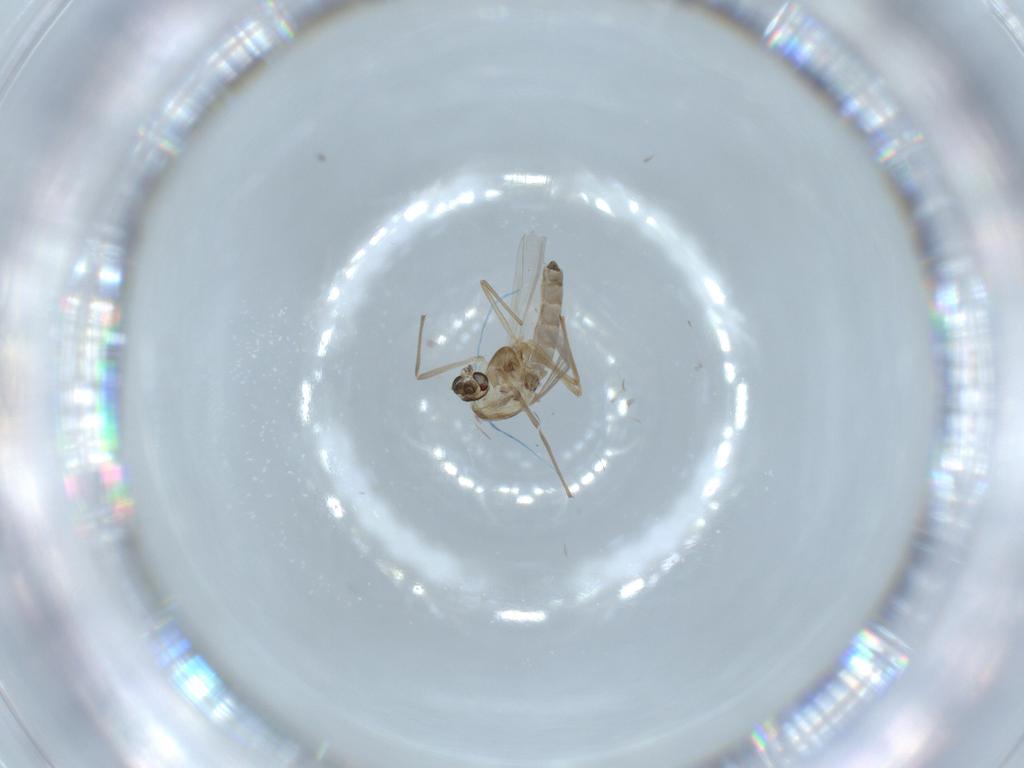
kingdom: Animalia
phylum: Arthropoda
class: Insecta
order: Diptera
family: Chironomidae
